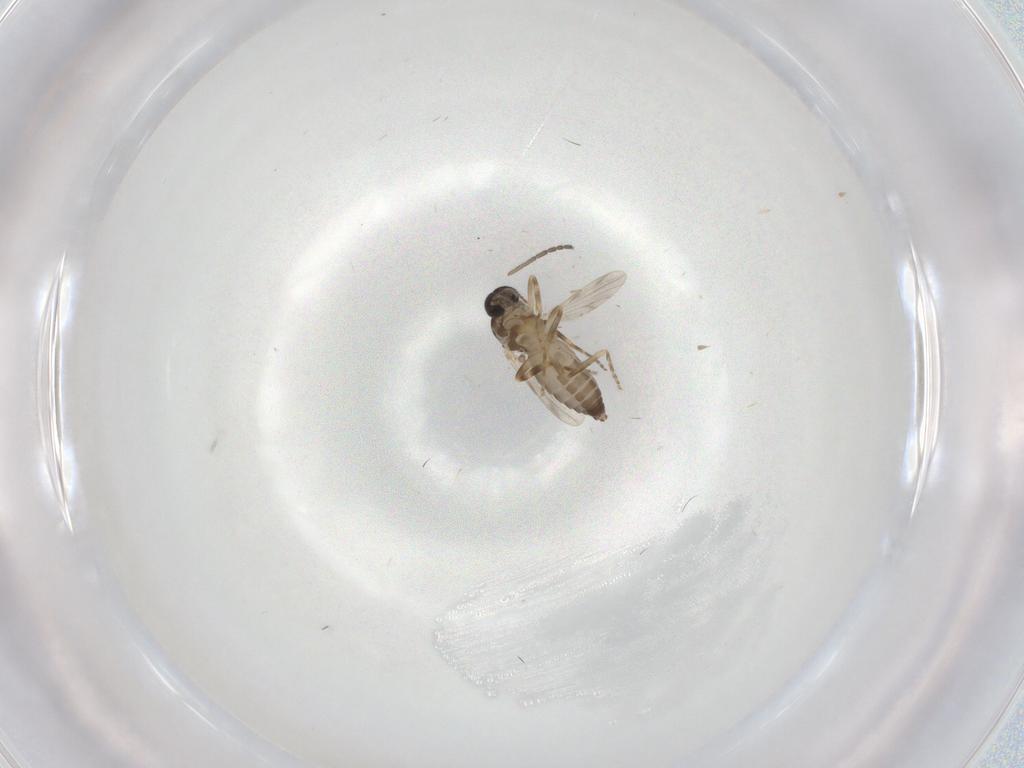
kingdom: Animalia
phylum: Arthropoda
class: Insecta
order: Diptera
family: Ceratopogonidae
